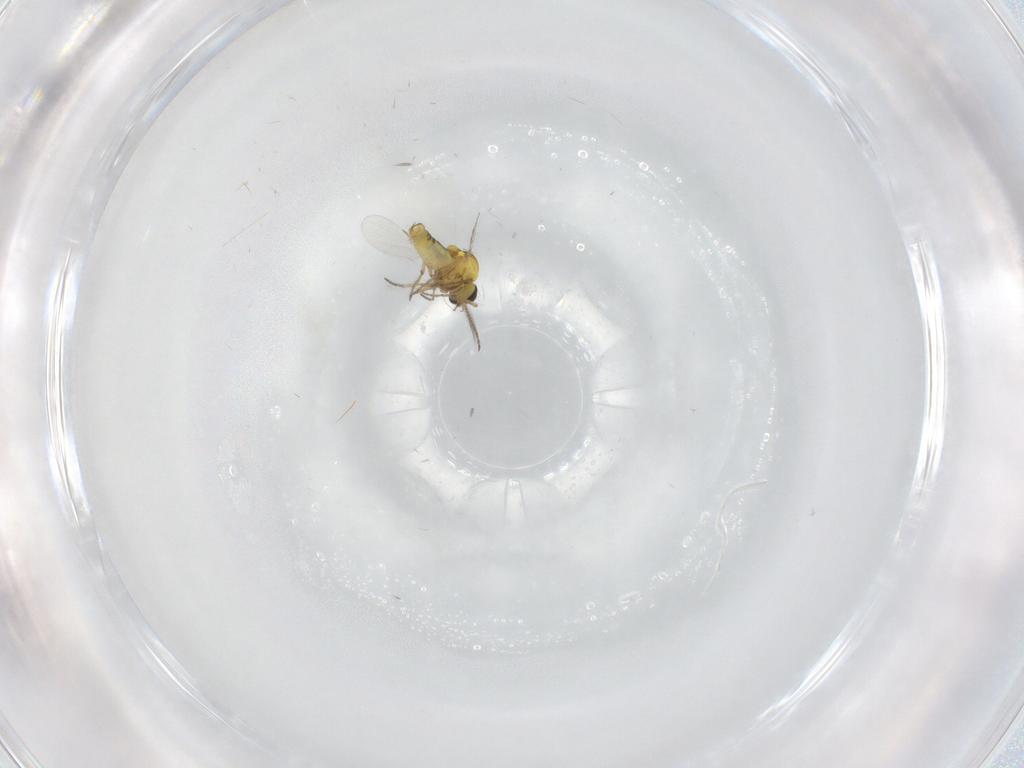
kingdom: Animalia
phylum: Arthropoda
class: Insecta
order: Diptera
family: Ceratopogonidae
